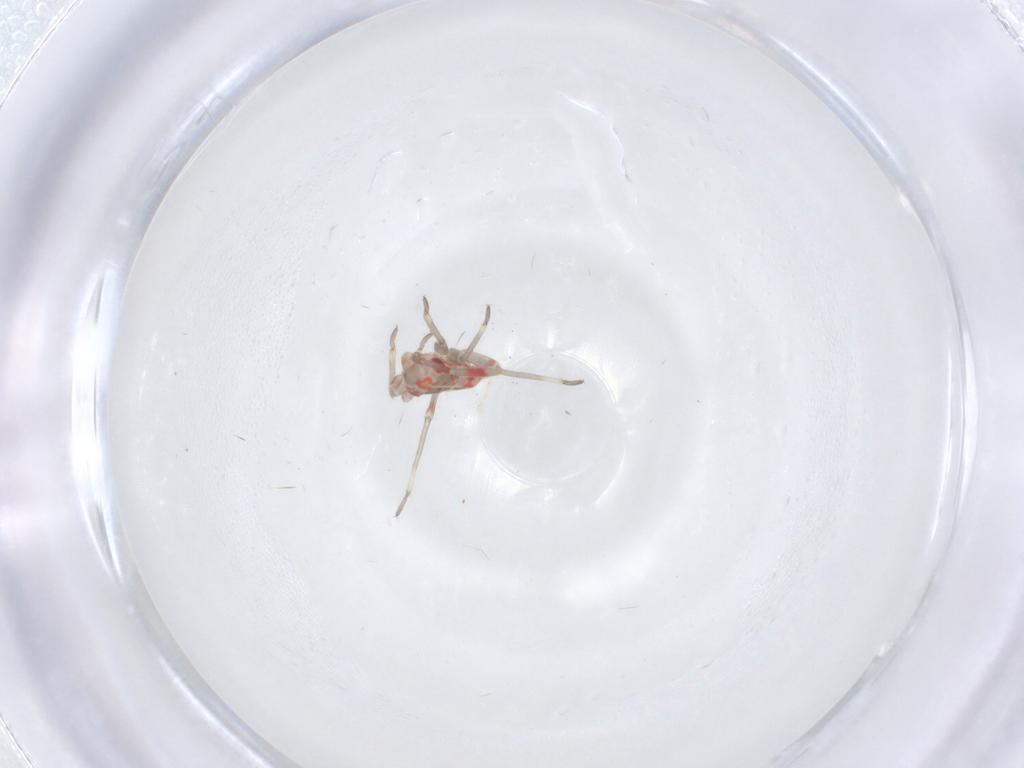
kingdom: Animalia
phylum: Arthropoda
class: Insecta
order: Hemiptera
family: Miridae
